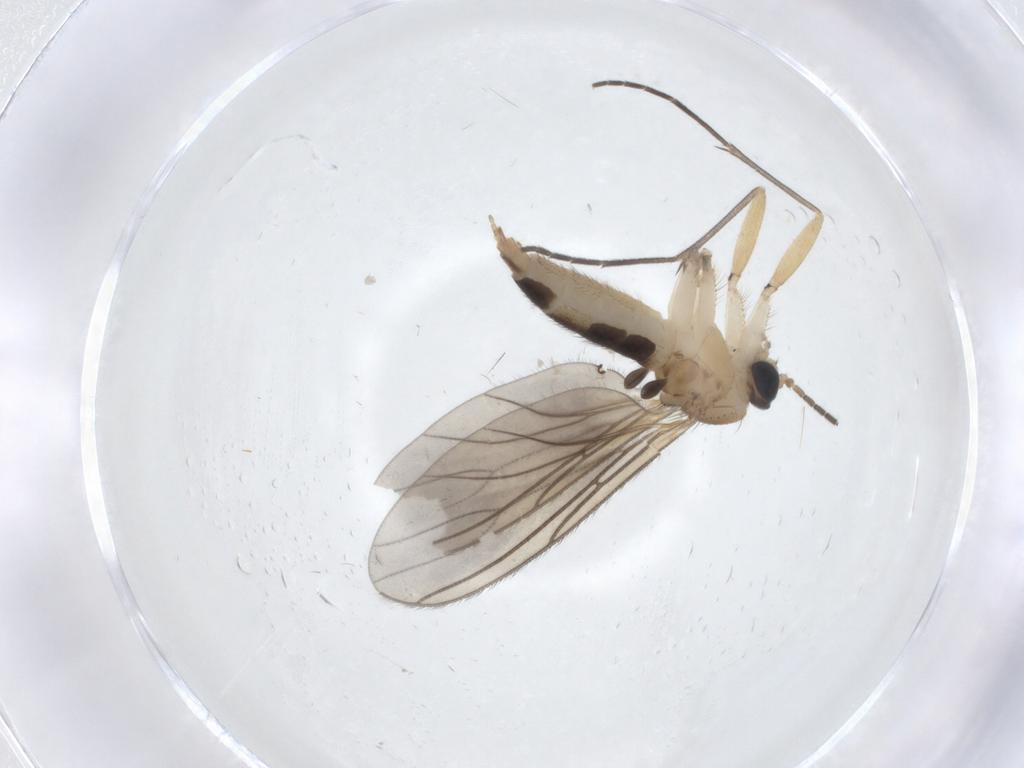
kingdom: Animalia
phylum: Arthropoda
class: Insecta
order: Diptera
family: Sciaridae
